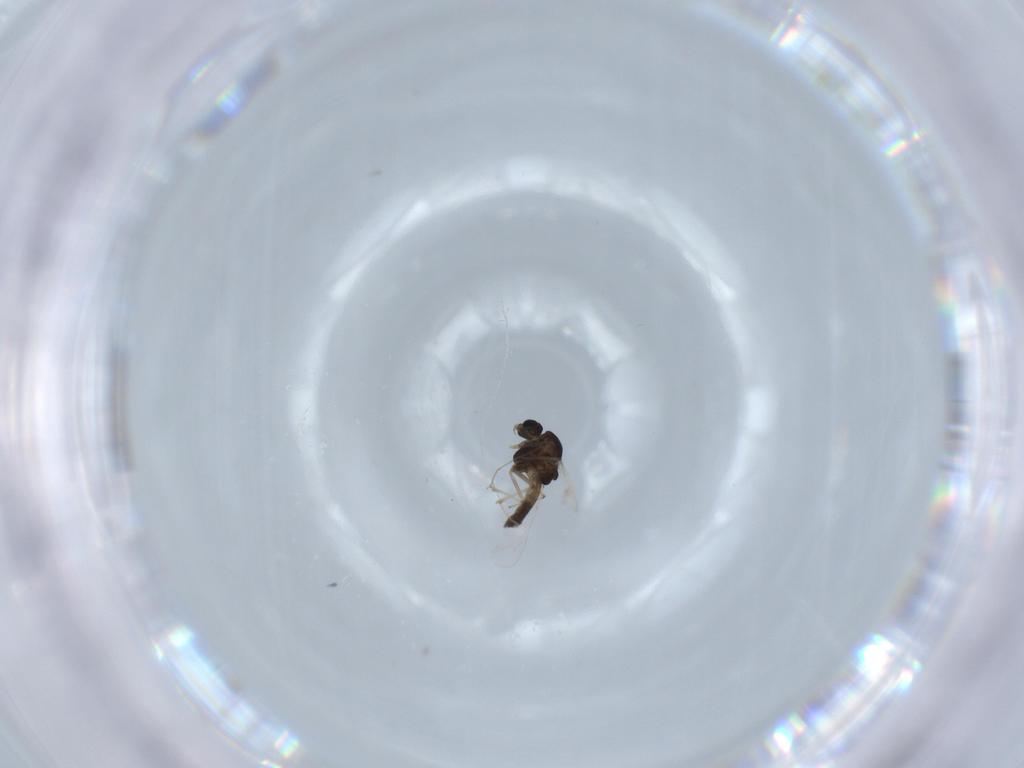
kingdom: Animalia
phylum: Arthropoda
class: Insecta
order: Diptera
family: Chironomidae
